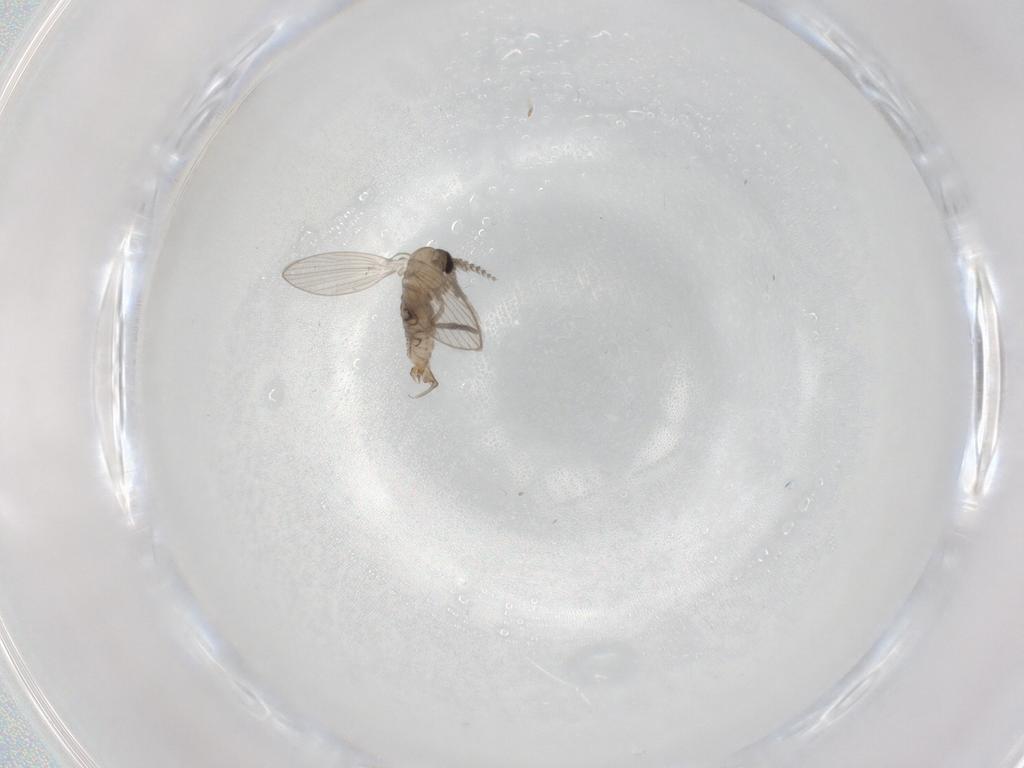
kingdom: Animalia
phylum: Arthropoda
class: Insecta
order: Diptera
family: Psychodidae
